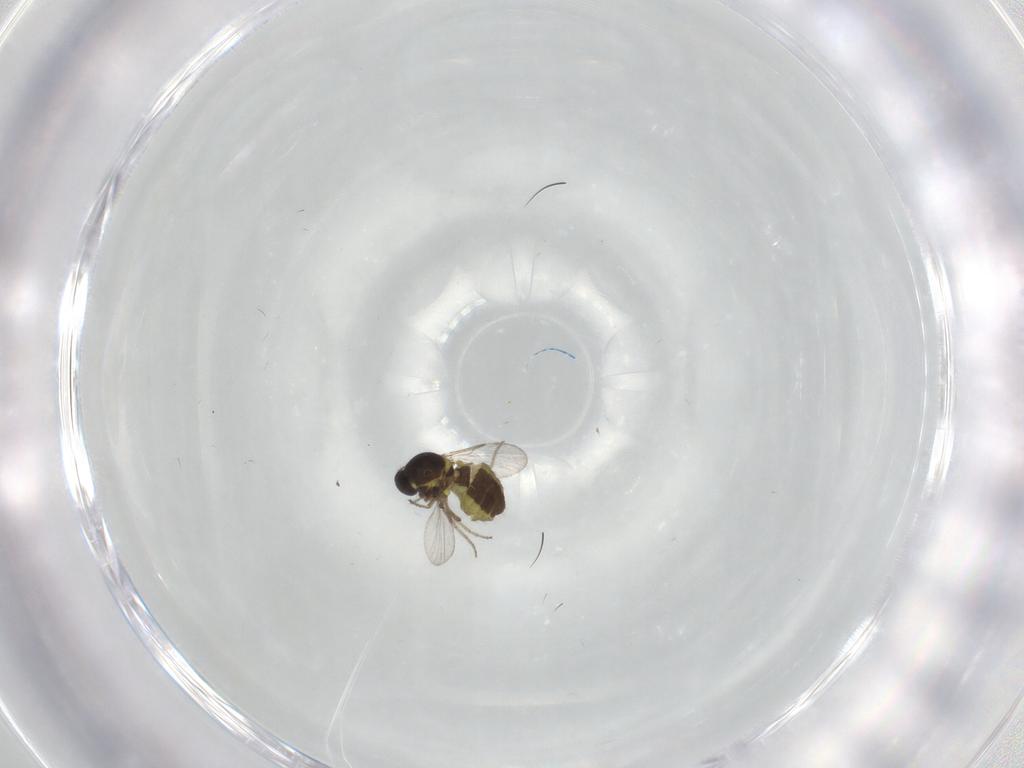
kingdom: Animalia
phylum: Arthropoda
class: Insecta
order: Diptera
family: Ceratopogonidae
